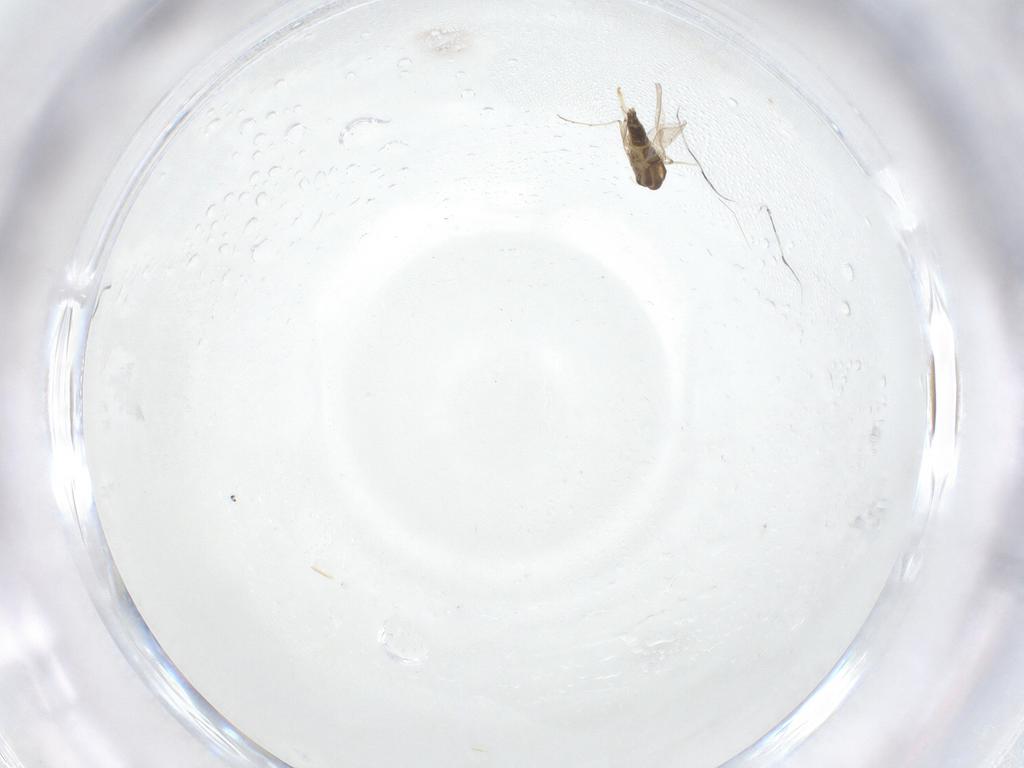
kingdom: Animalia
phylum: Arthropoda
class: Insecta
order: Diptera
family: Chironomidae
